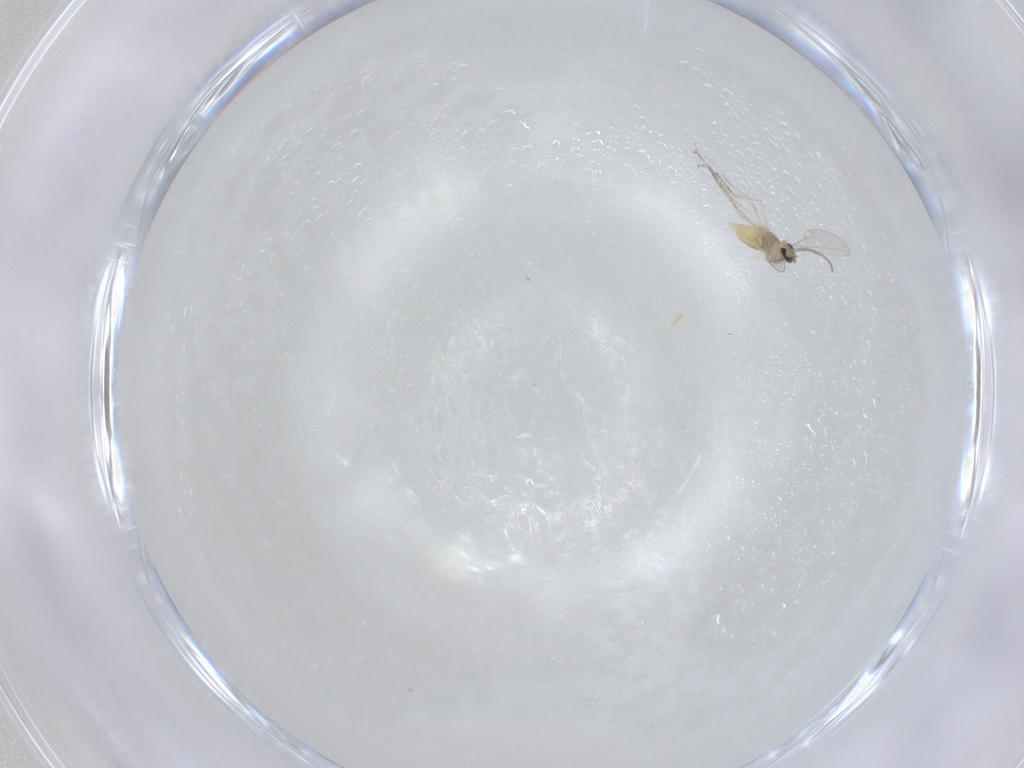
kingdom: Animalia
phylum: Arthropoda
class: Insecta
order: Diptera
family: Cecidomyiidae
